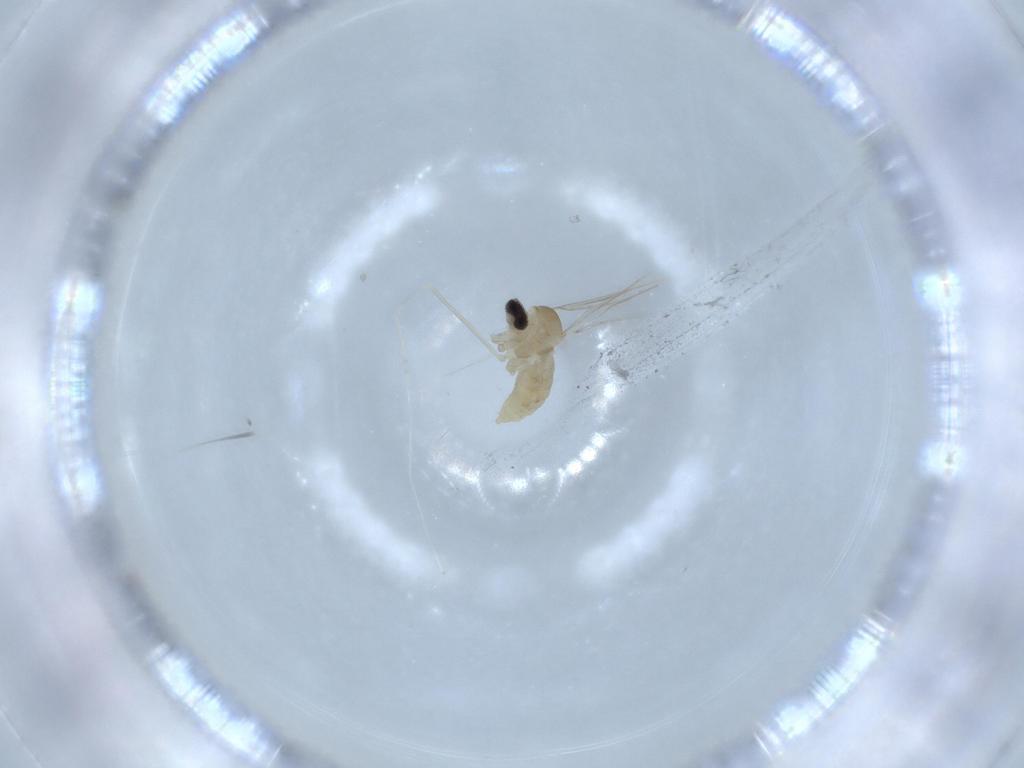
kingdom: Animalia
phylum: Arthropoda
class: Insecta
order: Diptera
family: Cecidomyiidae
